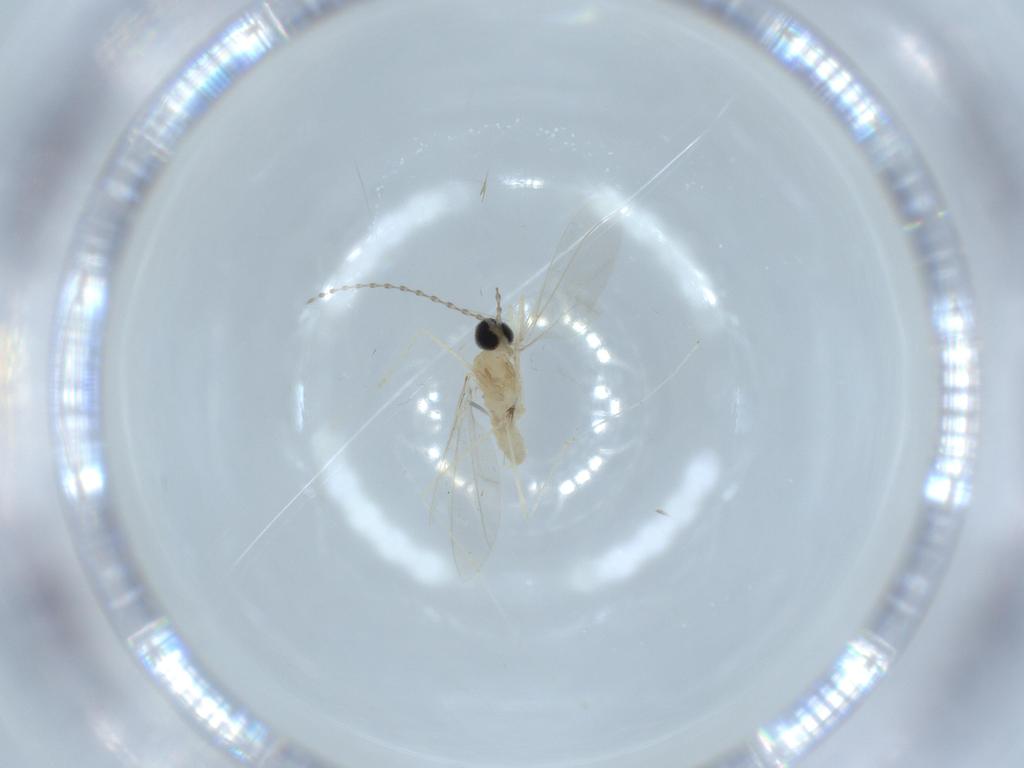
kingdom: Animalia
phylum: Arthropoda
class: Insecta
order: Diptera
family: Cecidomyiidae
